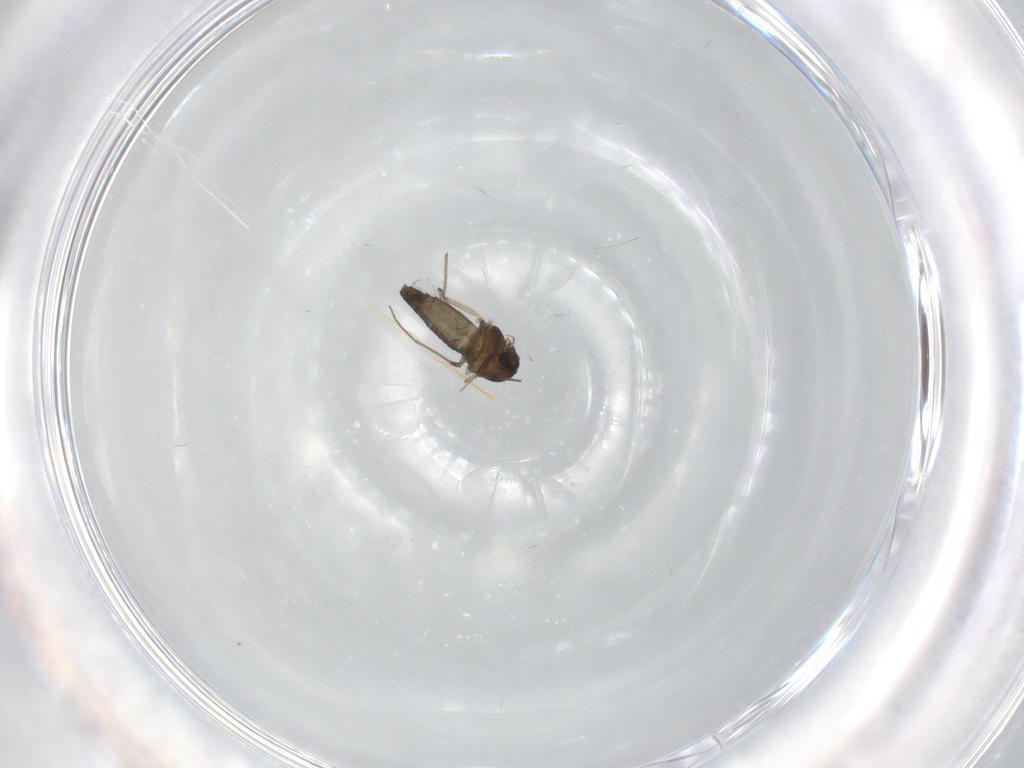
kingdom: Animalia
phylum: Arthropoda
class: Insecta
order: Diptera
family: Chironomidae
